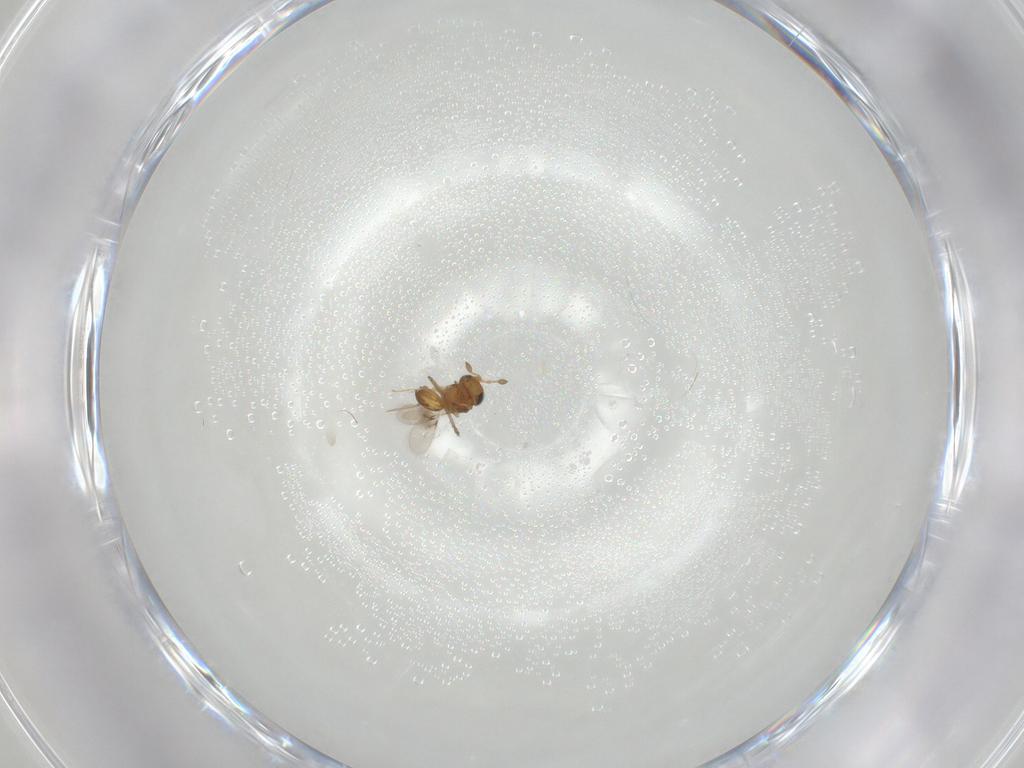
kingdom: Animalia
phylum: Arthropoda
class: Insecta
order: Hymenoptera
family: Scelionidae
